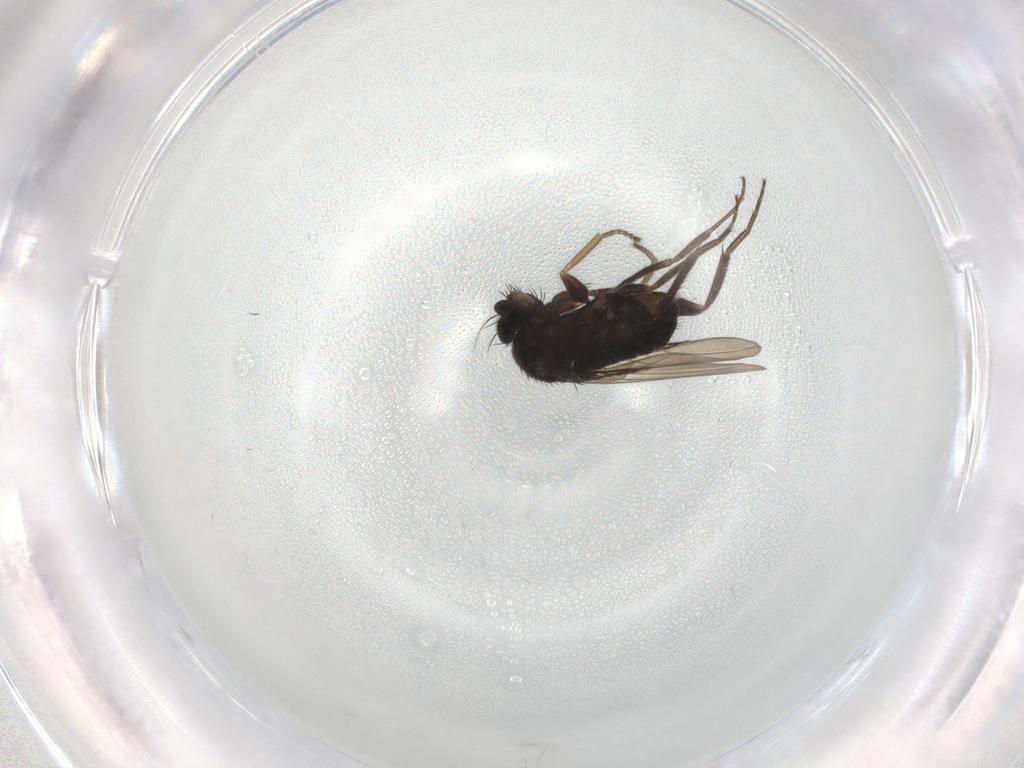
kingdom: Animalia
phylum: Arthropoda
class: Insecta
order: Diptera
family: Phoridae
